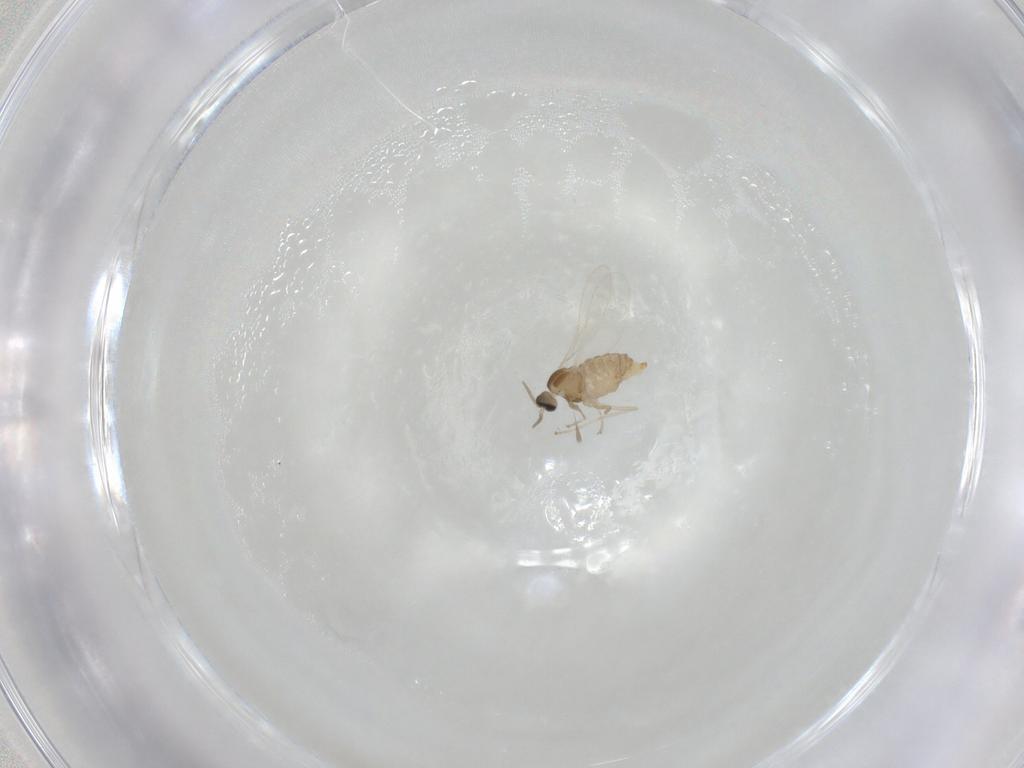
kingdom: Animalia
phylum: Arthropoda
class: Insecta
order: Diptera
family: Cecidomyiidae
